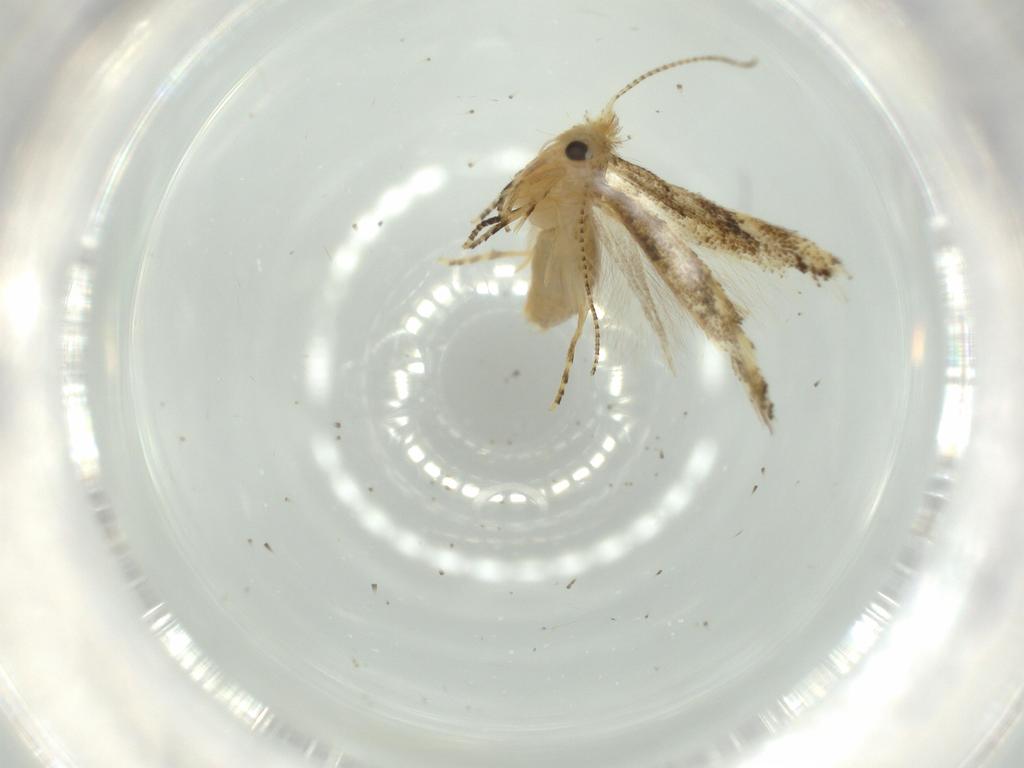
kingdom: Animalia
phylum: Arthropoda
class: Insecta
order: Lepidoptera
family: Bucculatricidae
